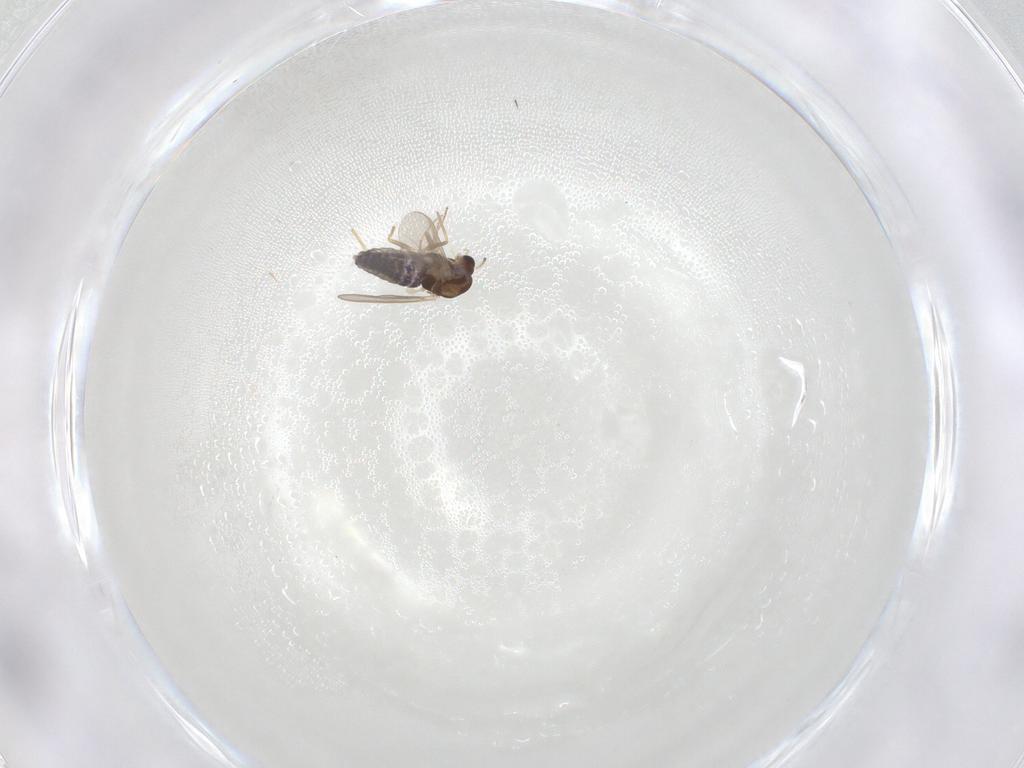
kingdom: Animalia
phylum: Arthropoda
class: Insecta
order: Diptera
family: Chironomidae
